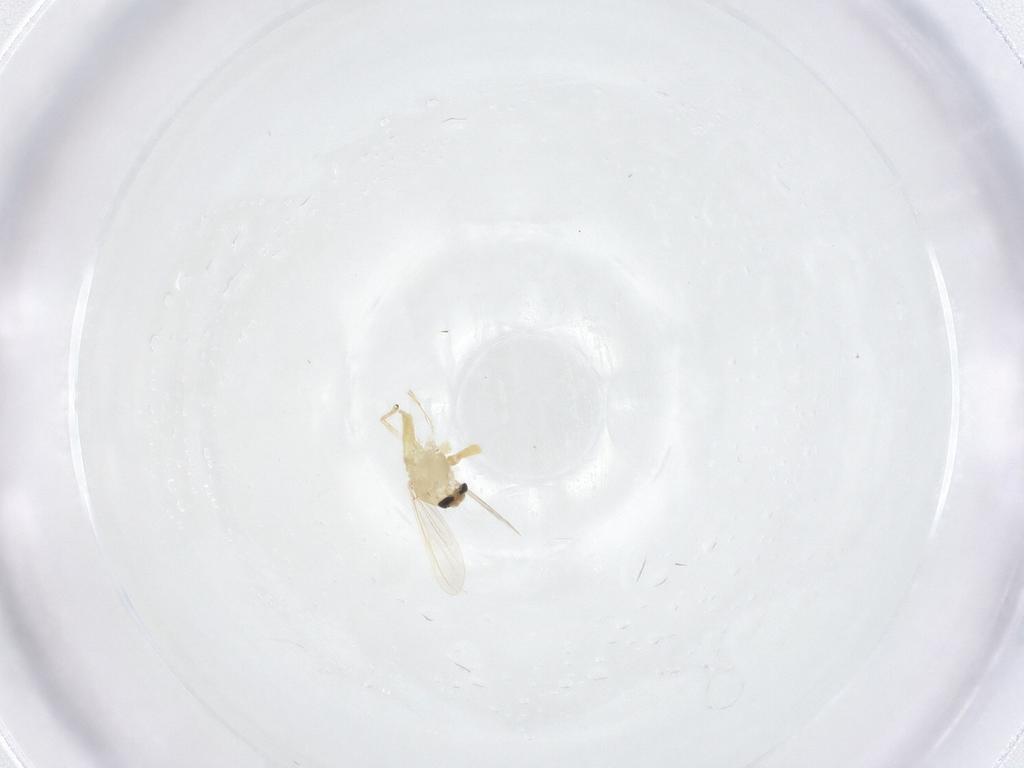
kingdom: Animalia
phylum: Arthropoda
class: Insecta
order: Diptera
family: Chironomidae
